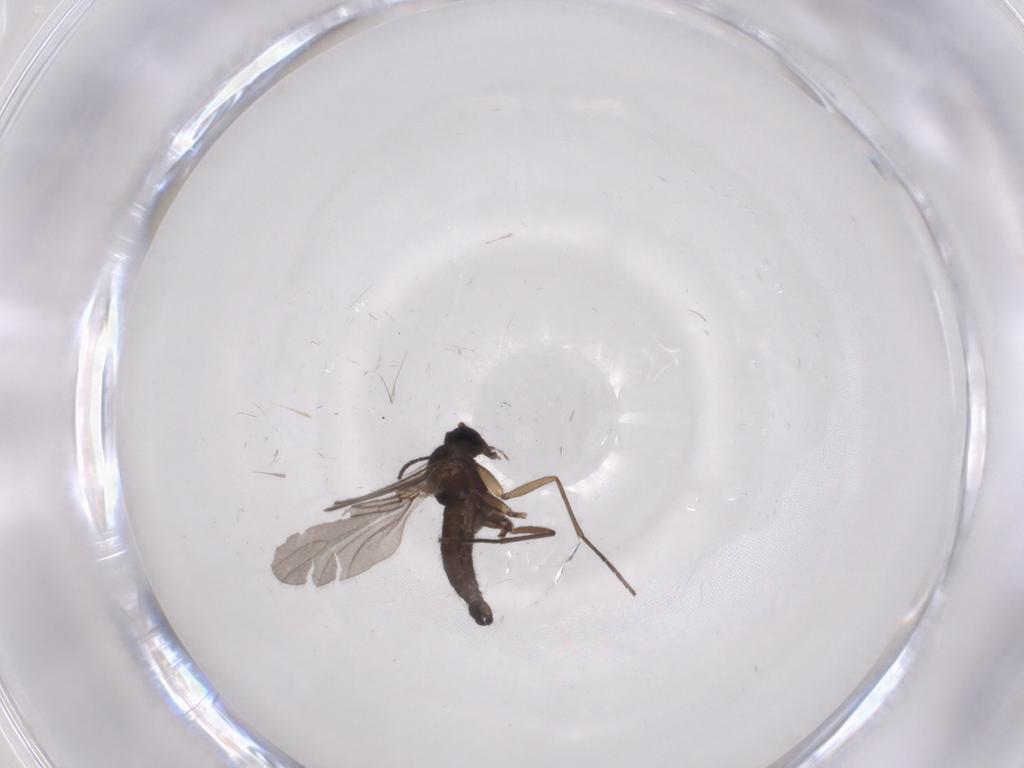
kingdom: Animalia
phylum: Arthropoda
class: Insecta
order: Diptera
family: Sciaridae
